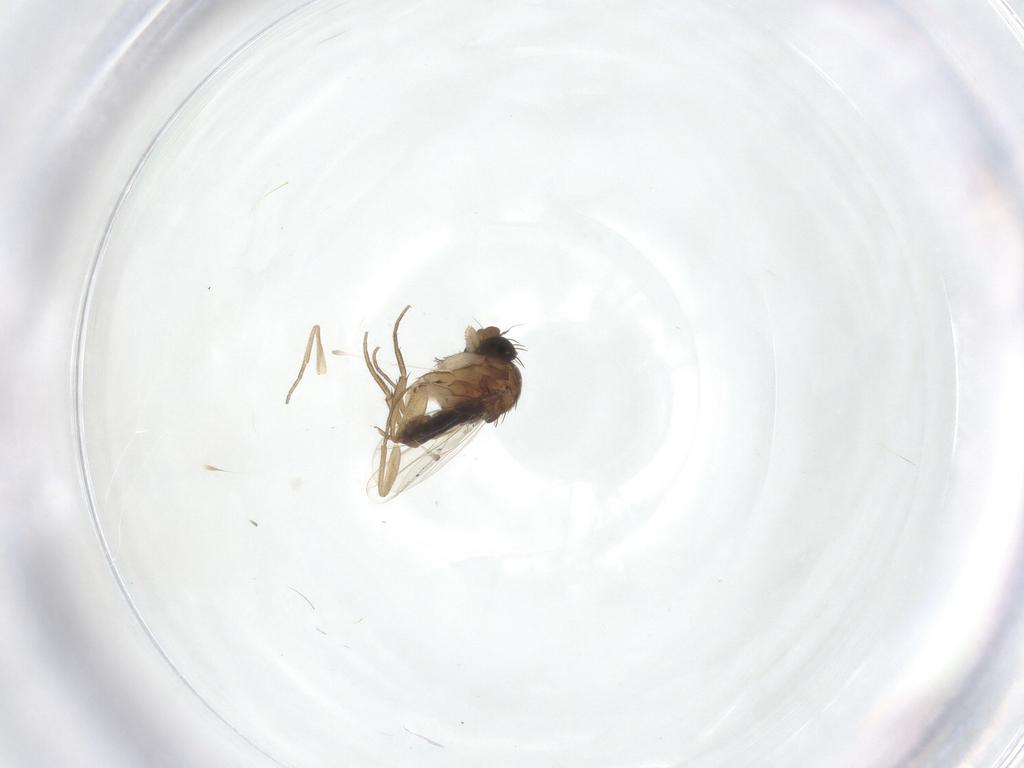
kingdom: Animalia
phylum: Arthropoda
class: Insecta
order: Diptera
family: Phoridae
